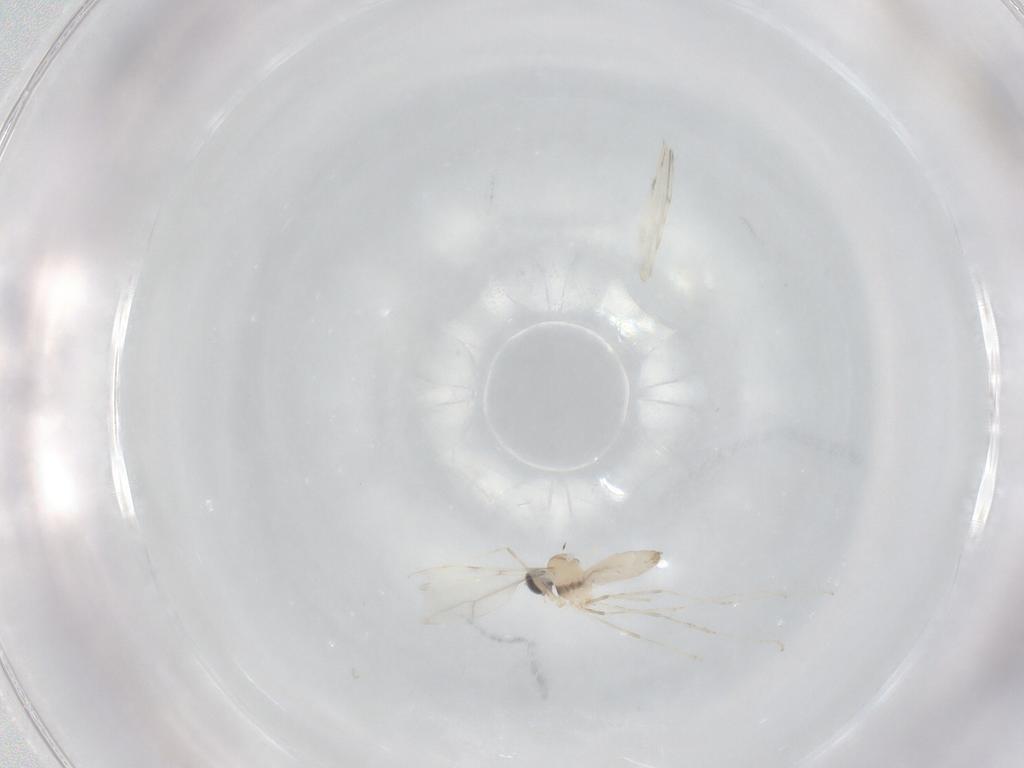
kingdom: Animalia
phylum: Arthropoda
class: Insecta
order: Diptera
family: Cecidomyiidae
